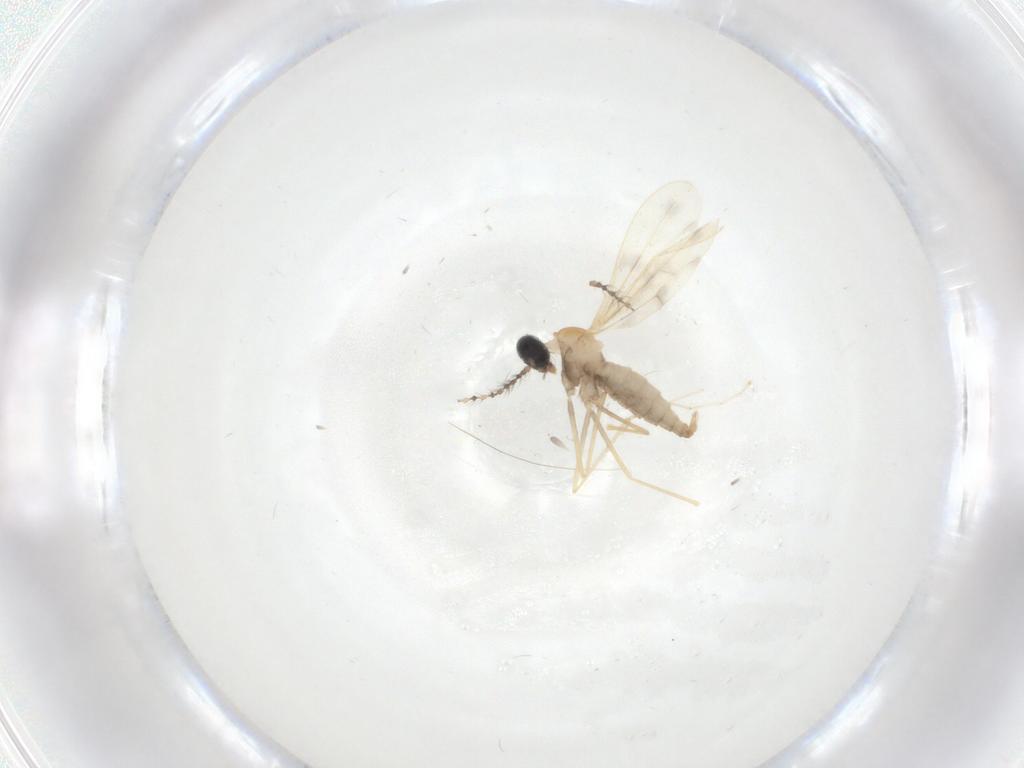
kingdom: Animalia
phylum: Arthropoda
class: Insecta
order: Diptera
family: Cecidomyiidae
